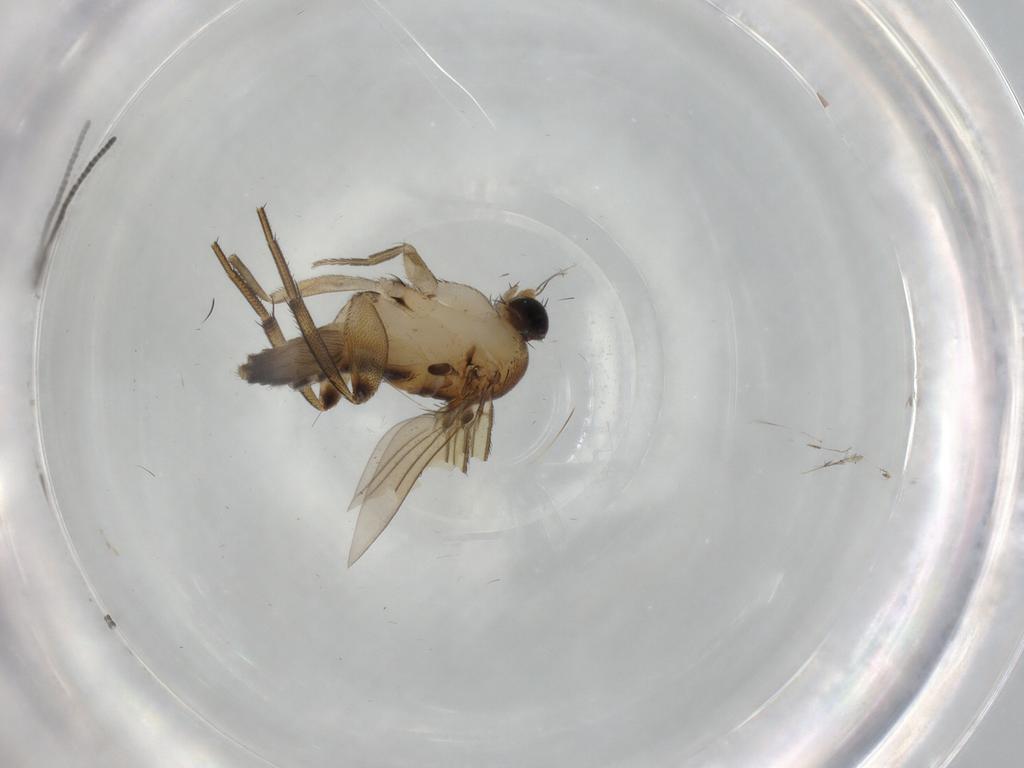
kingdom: Animalia
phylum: Arthropoda
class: Insecta
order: Diptera
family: Phoridae
